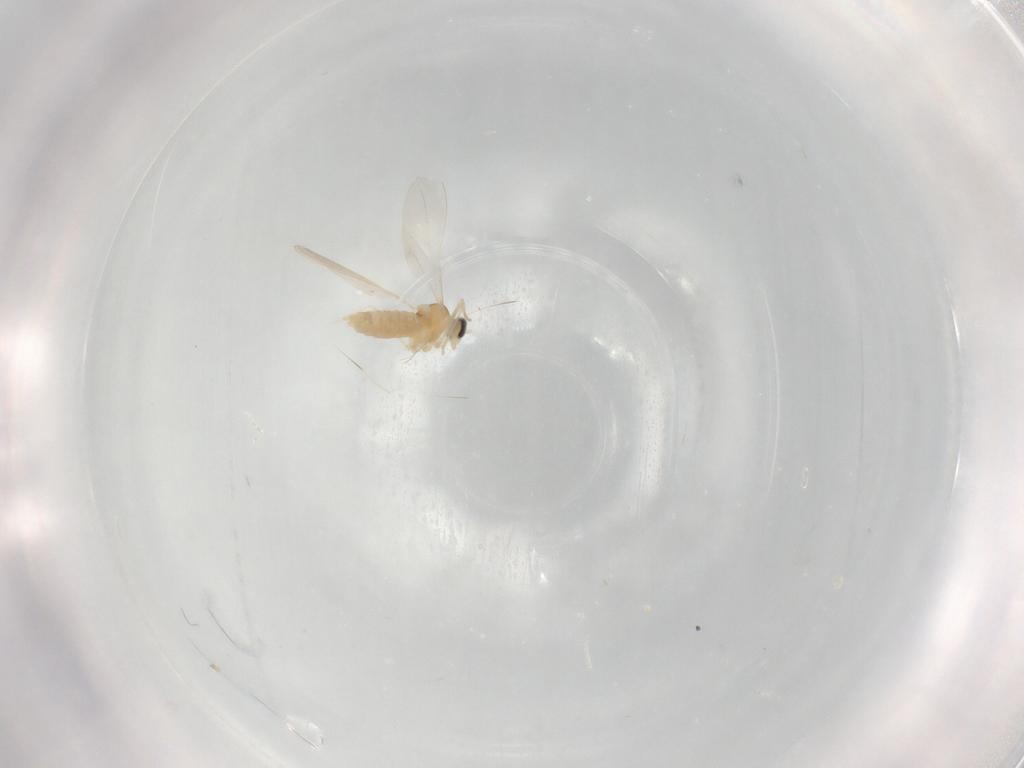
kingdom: Animalia
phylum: Arthropoda
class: Insecta
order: Diptera
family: Cecidomyiidae
